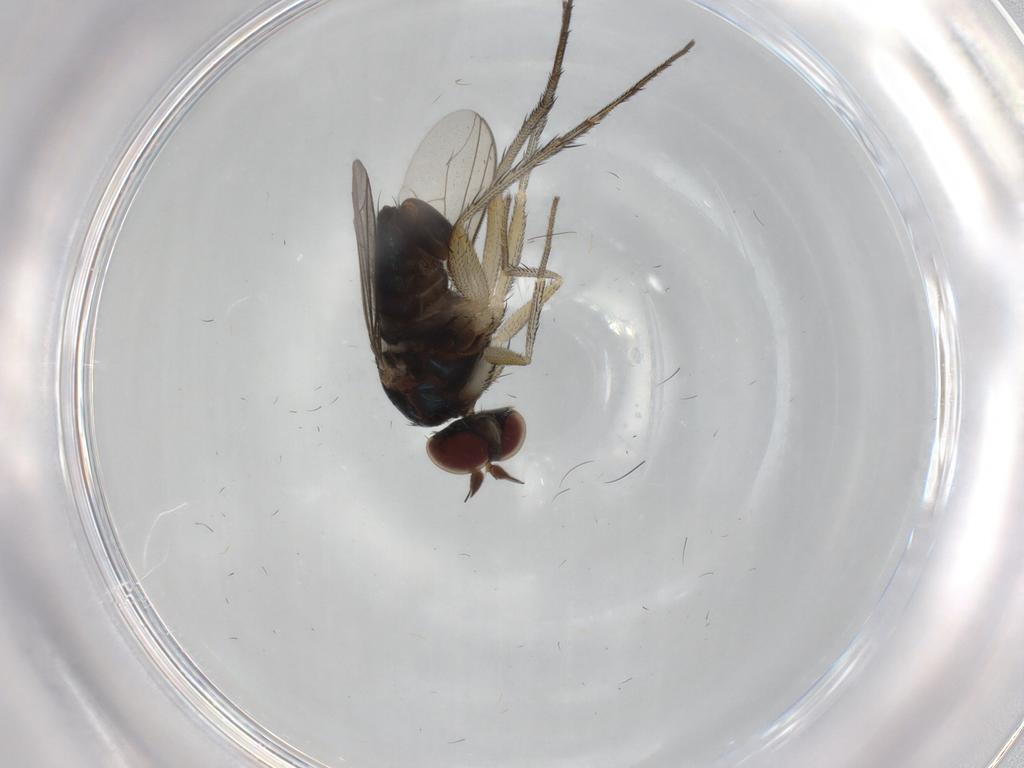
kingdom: Animalia
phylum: Arthropoda
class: Insecta
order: Diptera
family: Dolichopodidae
